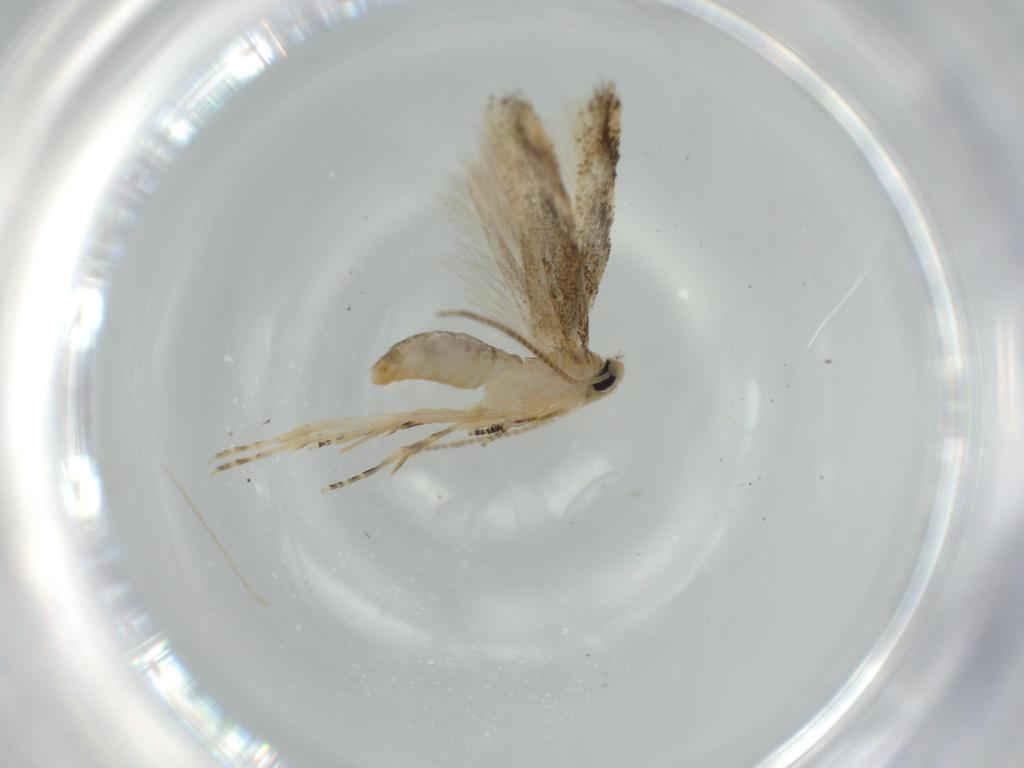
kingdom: Animalia
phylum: Arthropoda
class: Insecta
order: Lepidoptera
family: Bucculatricidae
